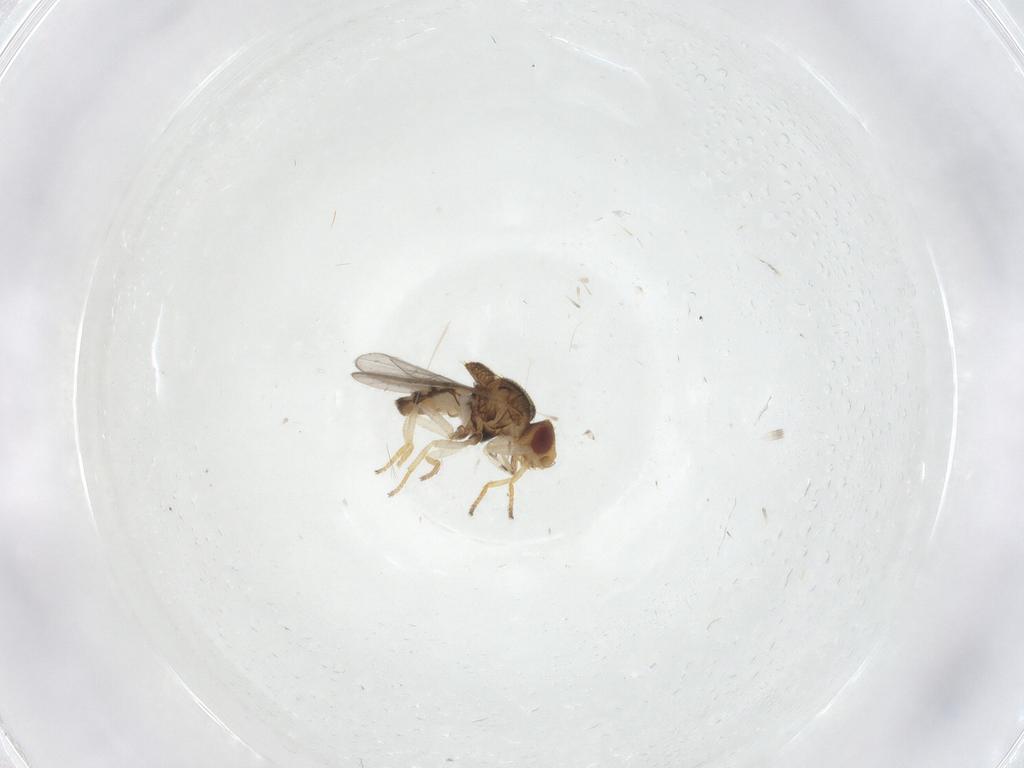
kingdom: Animalia
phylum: Arthropoda
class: Insecta
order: Diptera
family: Chloropidae
